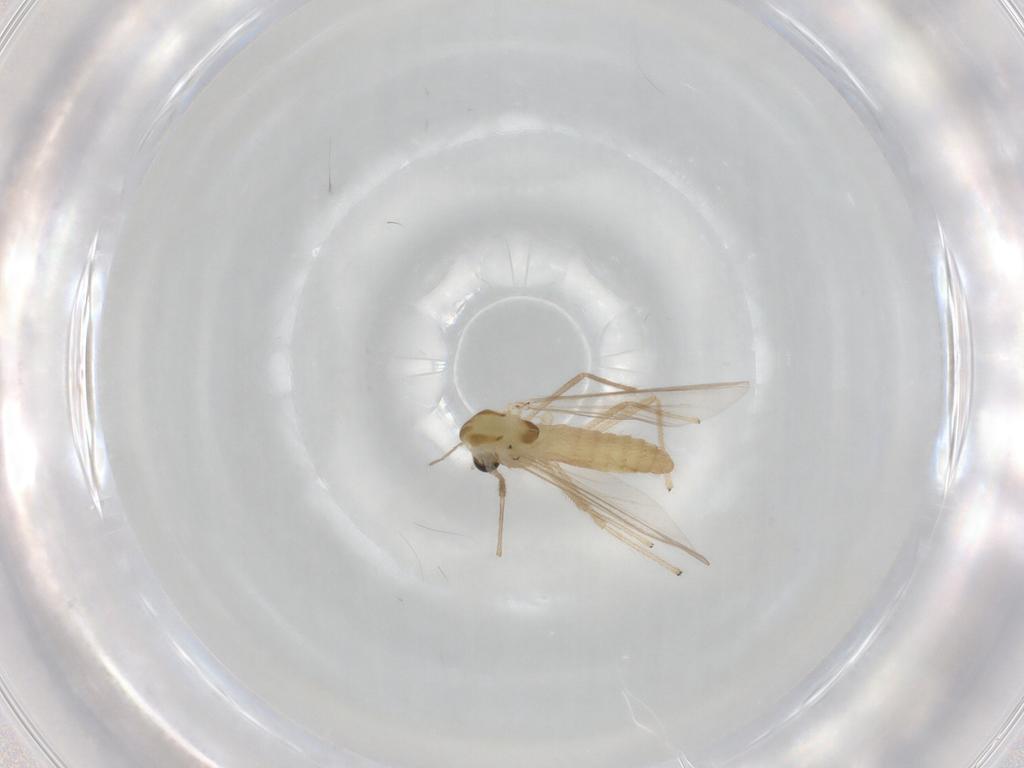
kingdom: Animalia
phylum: Arthropoda
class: Insecta
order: Diptera
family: Chironomidae
